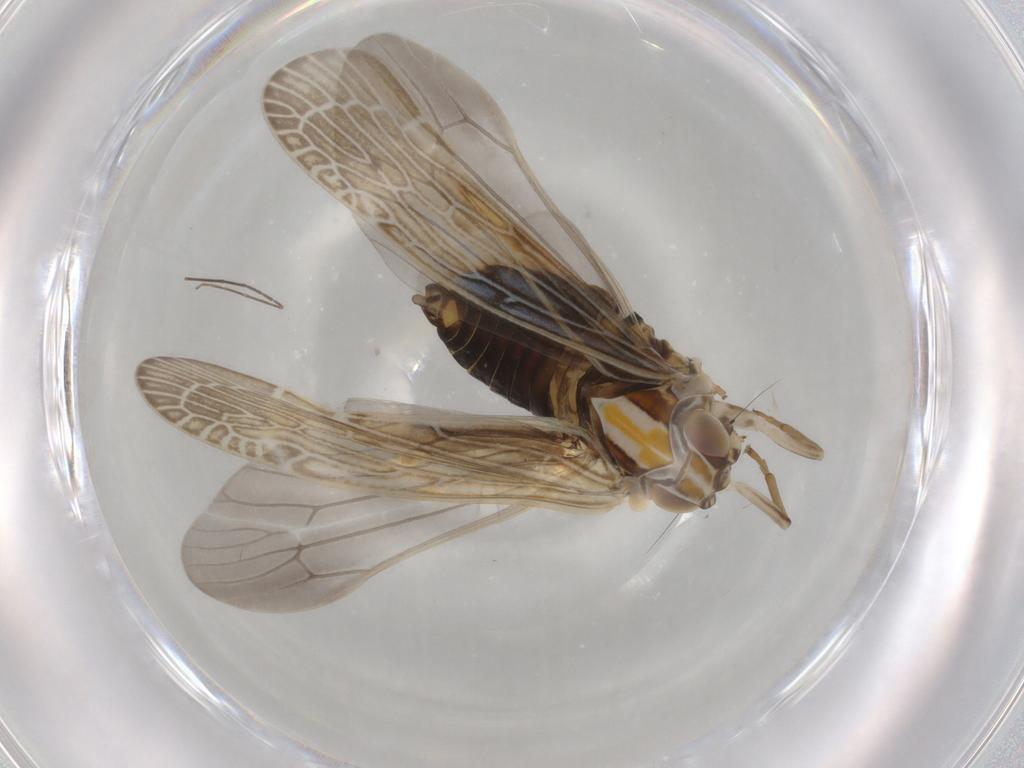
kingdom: Animalia
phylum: Arthropoda
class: Insecta
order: Hemiptera
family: Achilidae
